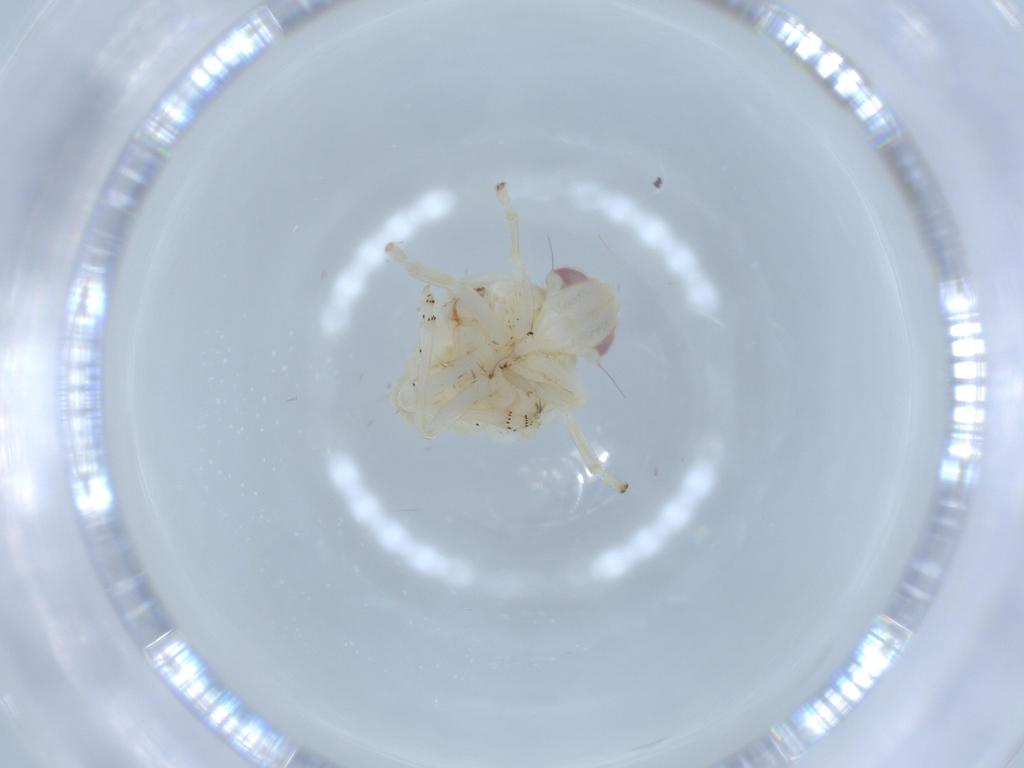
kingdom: Animalia
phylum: Arthropoda
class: Insecta
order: Hemiptera
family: Nogodinidae
